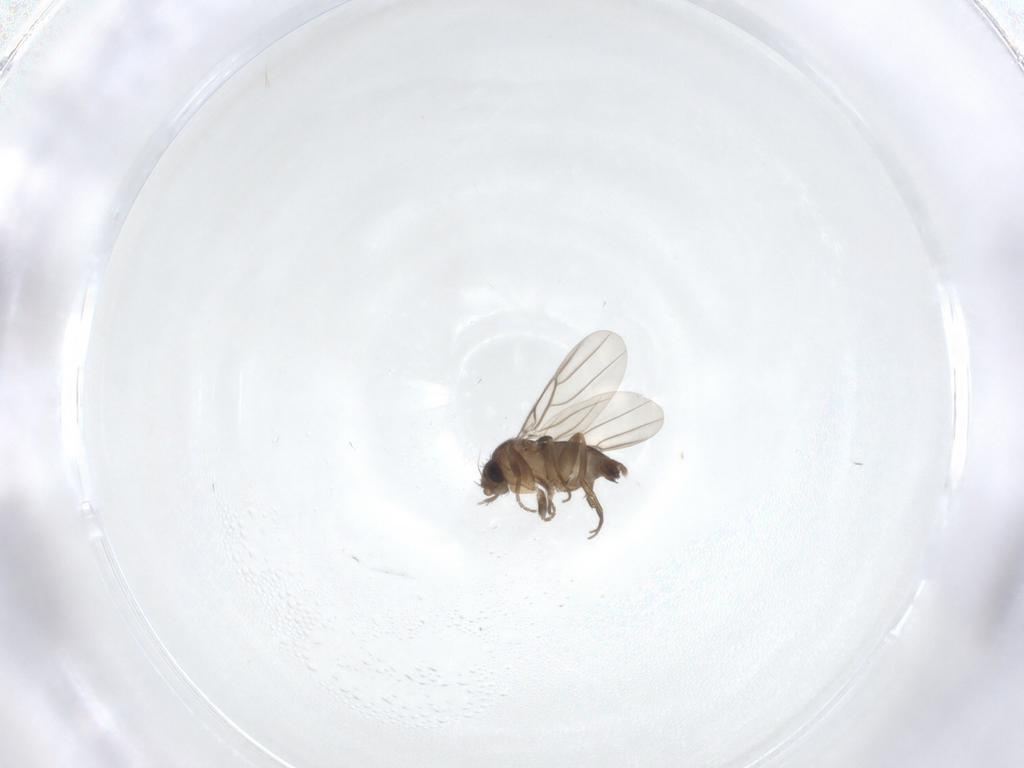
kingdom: Animalia
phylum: Arthropoda
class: Insecta
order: Diptera
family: Phoridae
